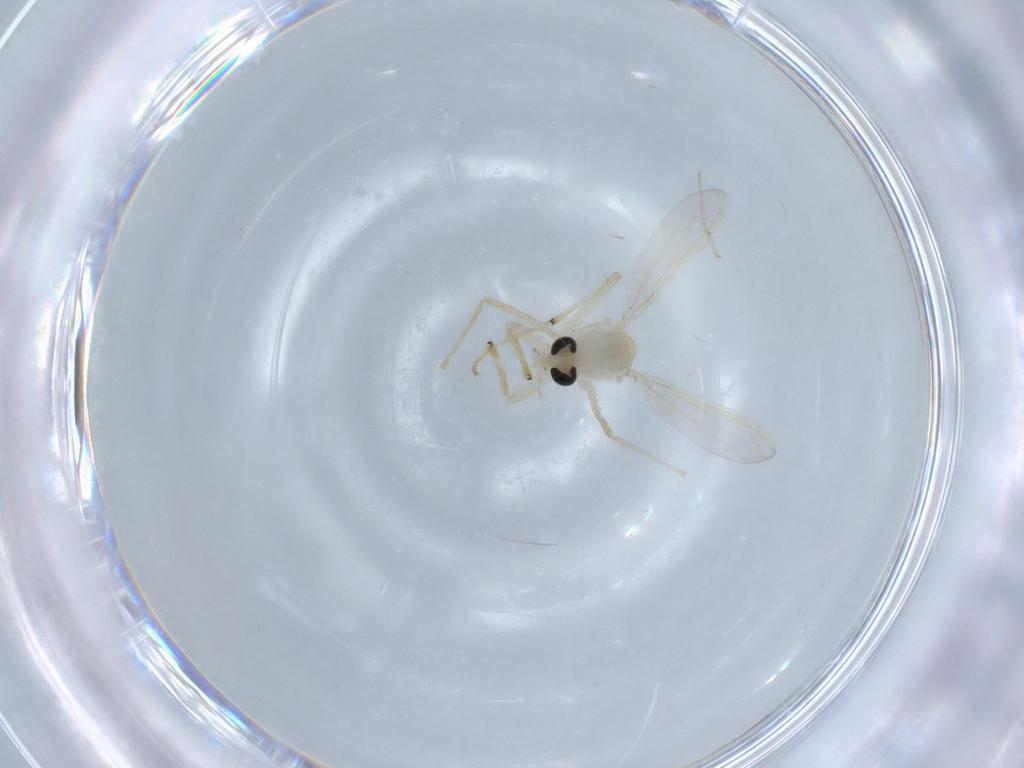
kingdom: Animalia
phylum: Arthropoda
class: Insecta
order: Diptera
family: Chironomidae
